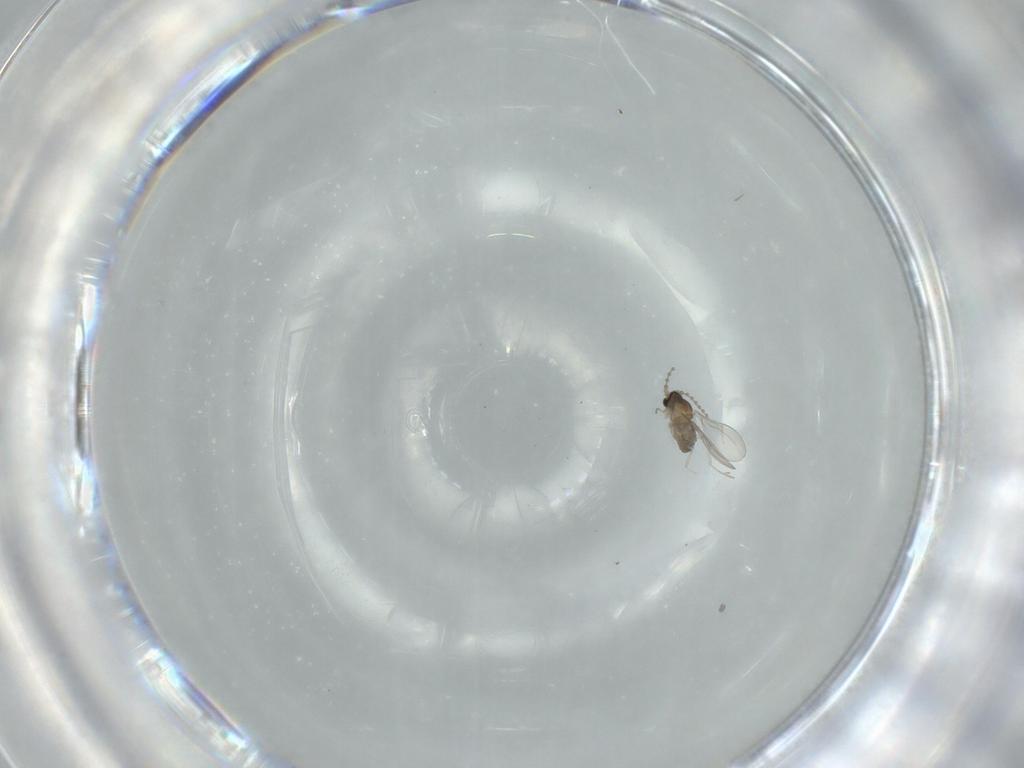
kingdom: Animalia
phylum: Arthropoda
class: Insecta
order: Diptera
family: Cecidomyiidae
